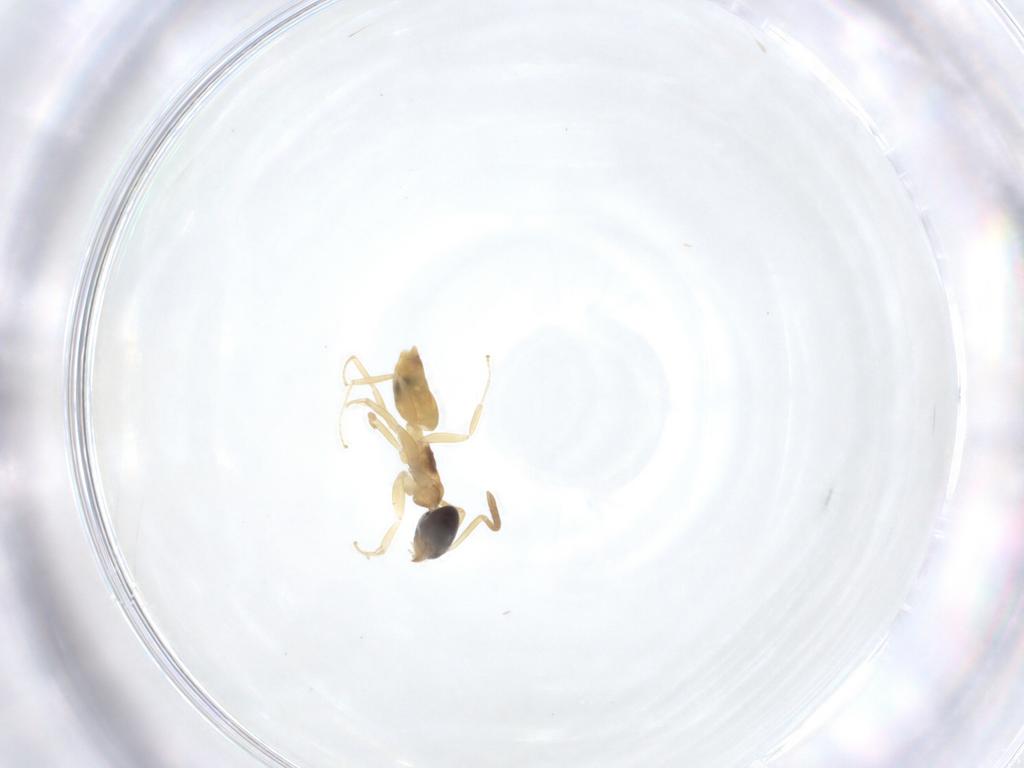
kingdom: Animalia
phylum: Arthropoda
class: Insecta
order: Hymenoptera
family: Formicidae
